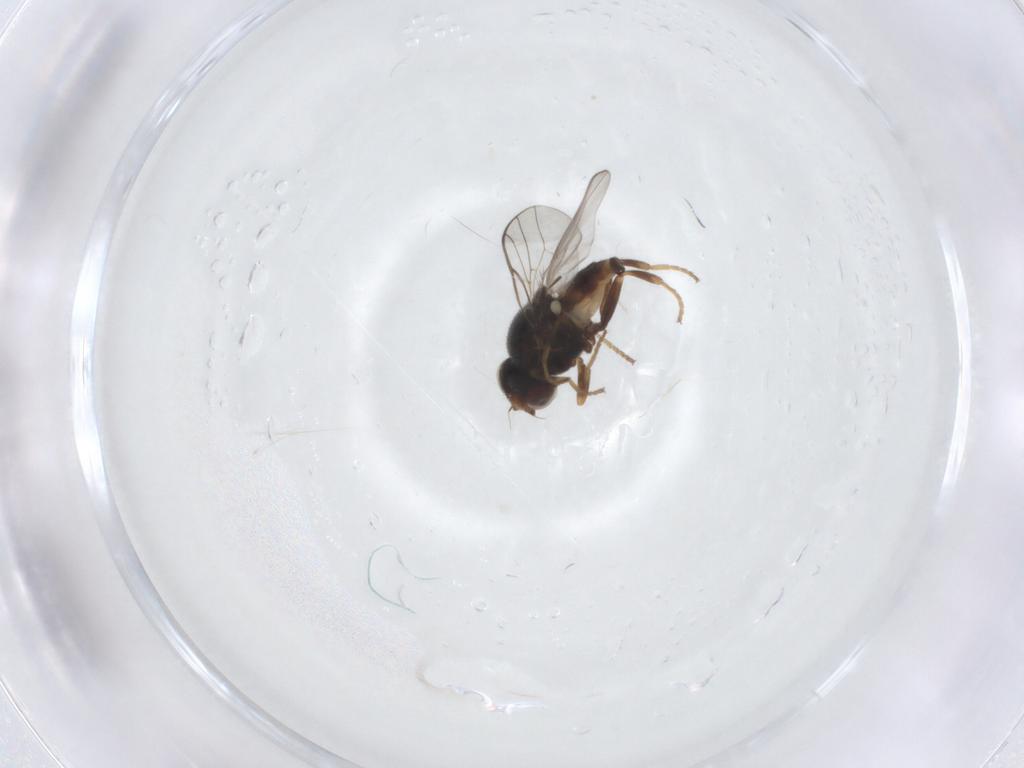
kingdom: Animalia
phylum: Arthropoda
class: Insecta
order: Diptera
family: Chloropidae
